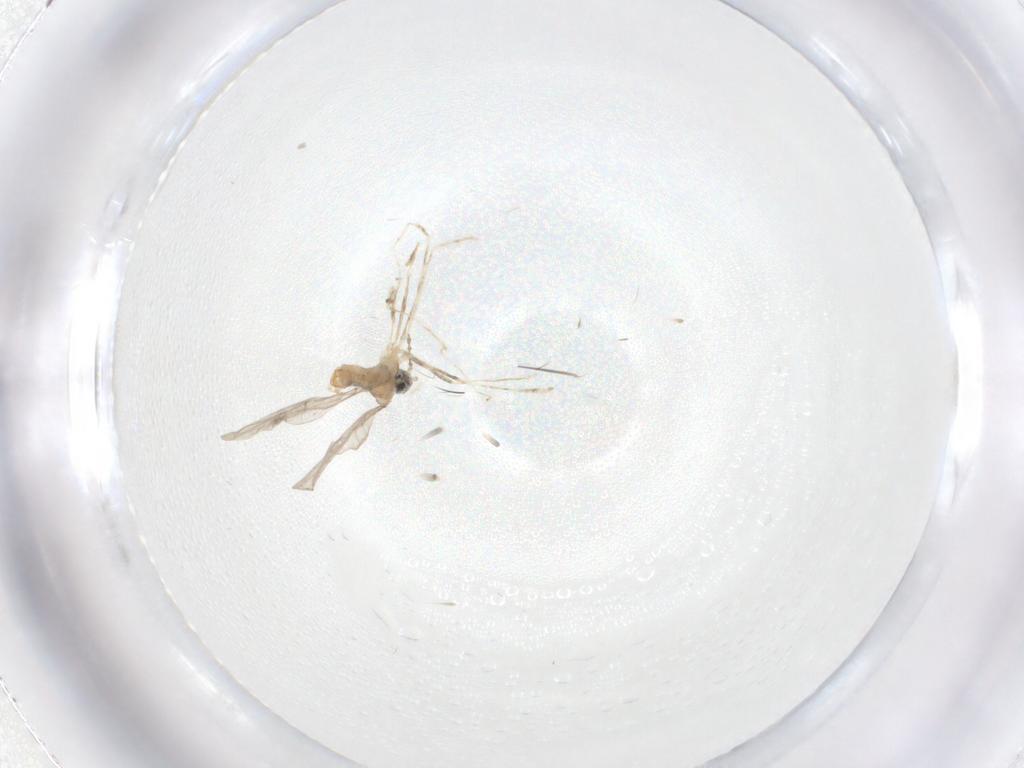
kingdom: Animalia
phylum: Arthropoda
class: Insecta
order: Diptera
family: Cecidomyiidae
